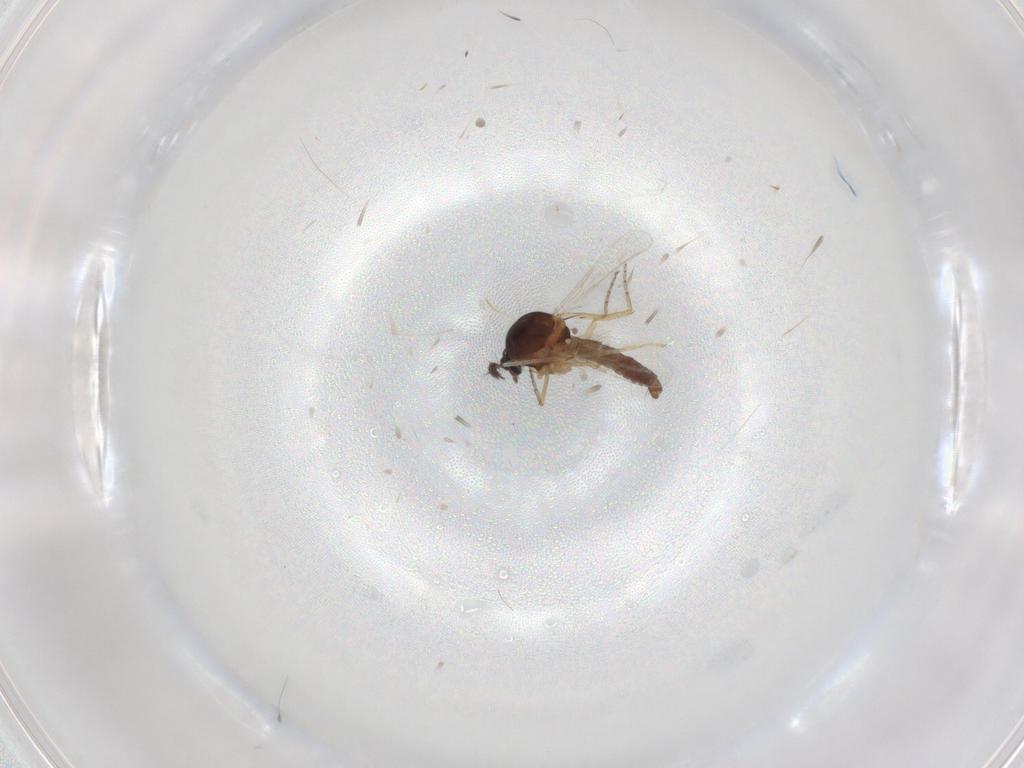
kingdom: Animalia
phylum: Arthropoda
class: Insecta
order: Diptera
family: Ceratopogonidae
